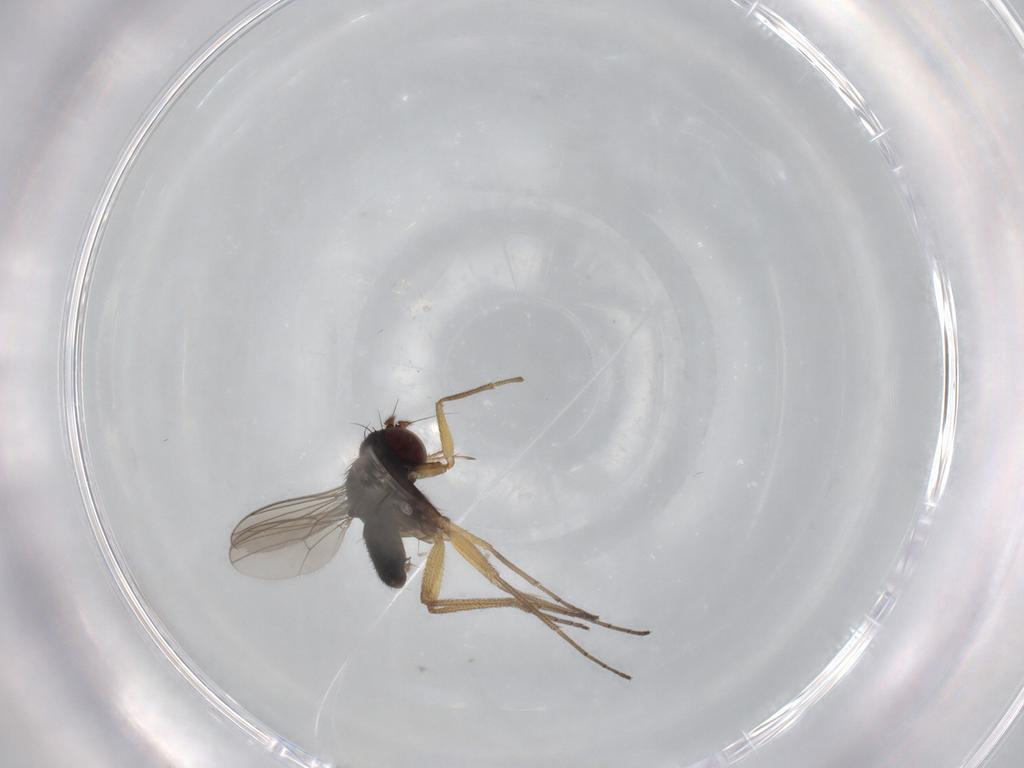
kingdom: Animalia
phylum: Arthropoda
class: Insecta
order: Diptera
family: Dolichopodidae
